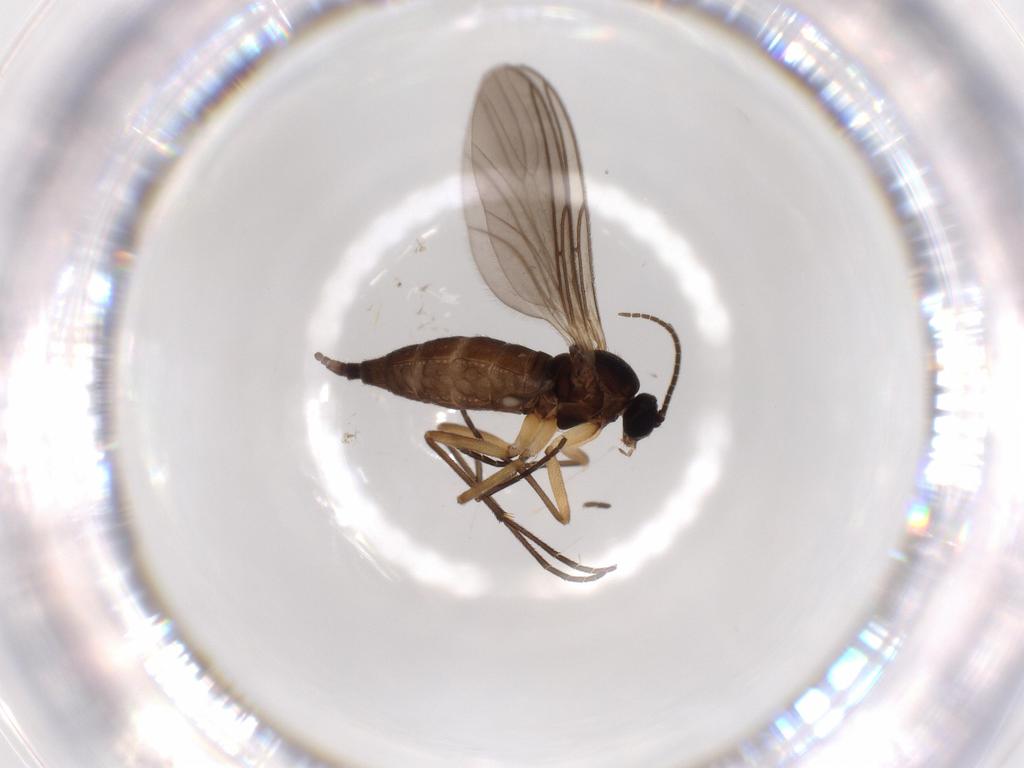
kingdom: Animalia
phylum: Arthropoda
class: Insecta
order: Diptera
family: Sciaridae
